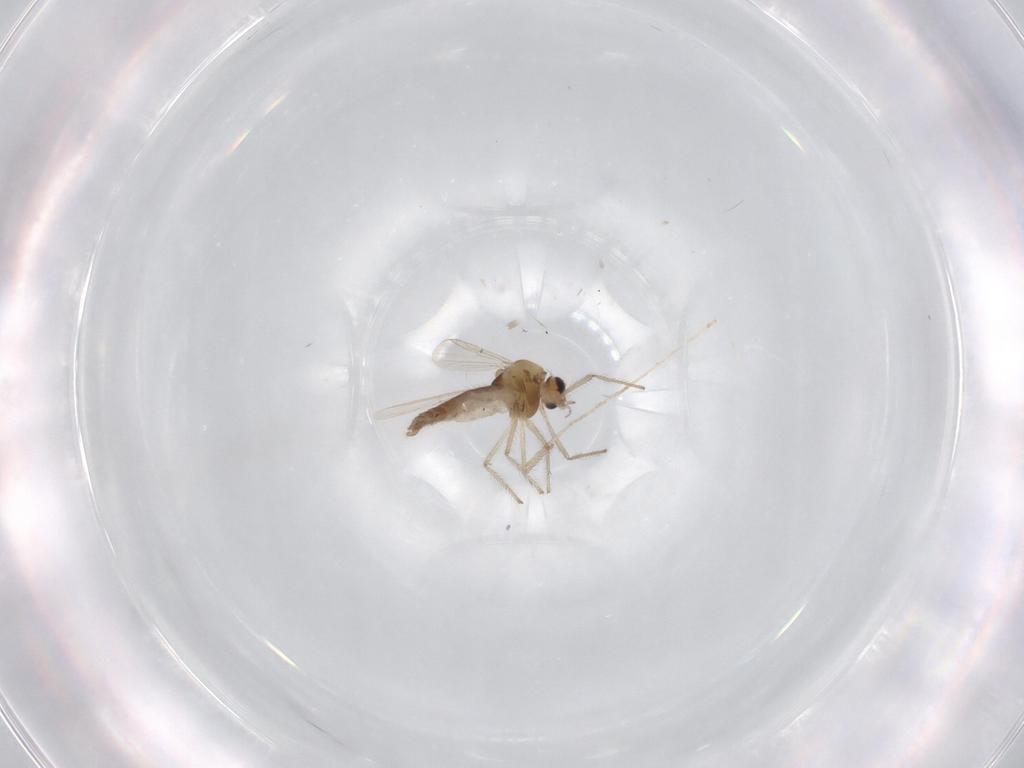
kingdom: Animalia
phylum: Arthropoda
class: Insecta
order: Diptera
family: Chironomidae
